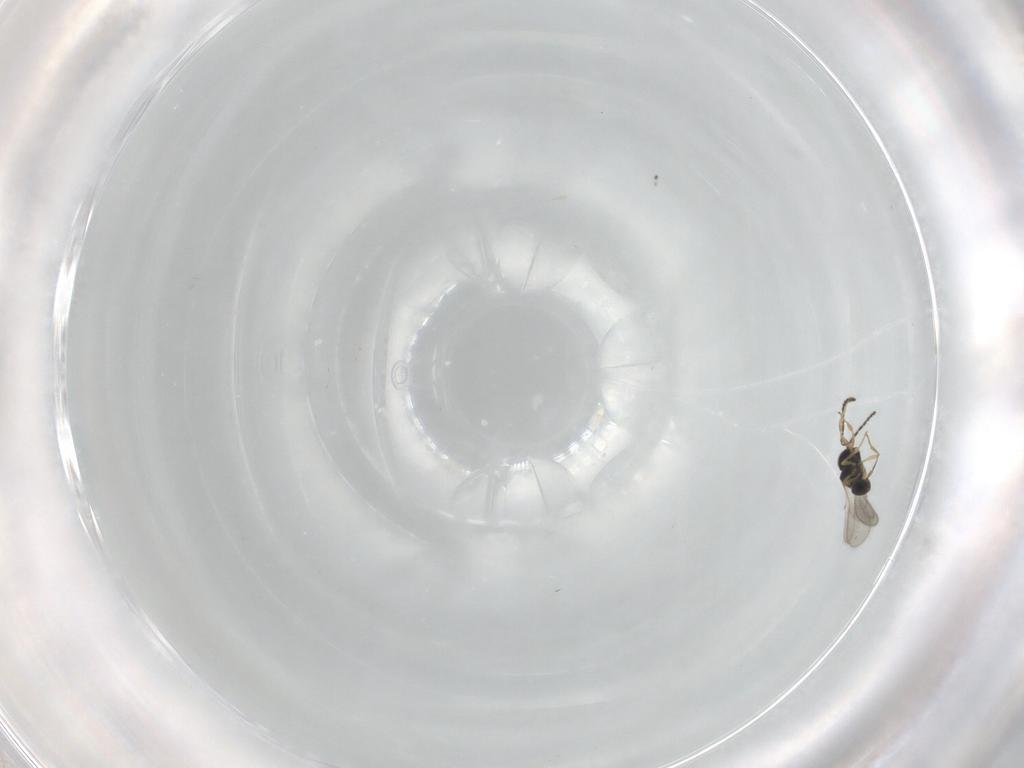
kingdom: Animalia
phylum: Arthropoda
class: Insecta
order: Hymenoptera
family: Scelionidae
